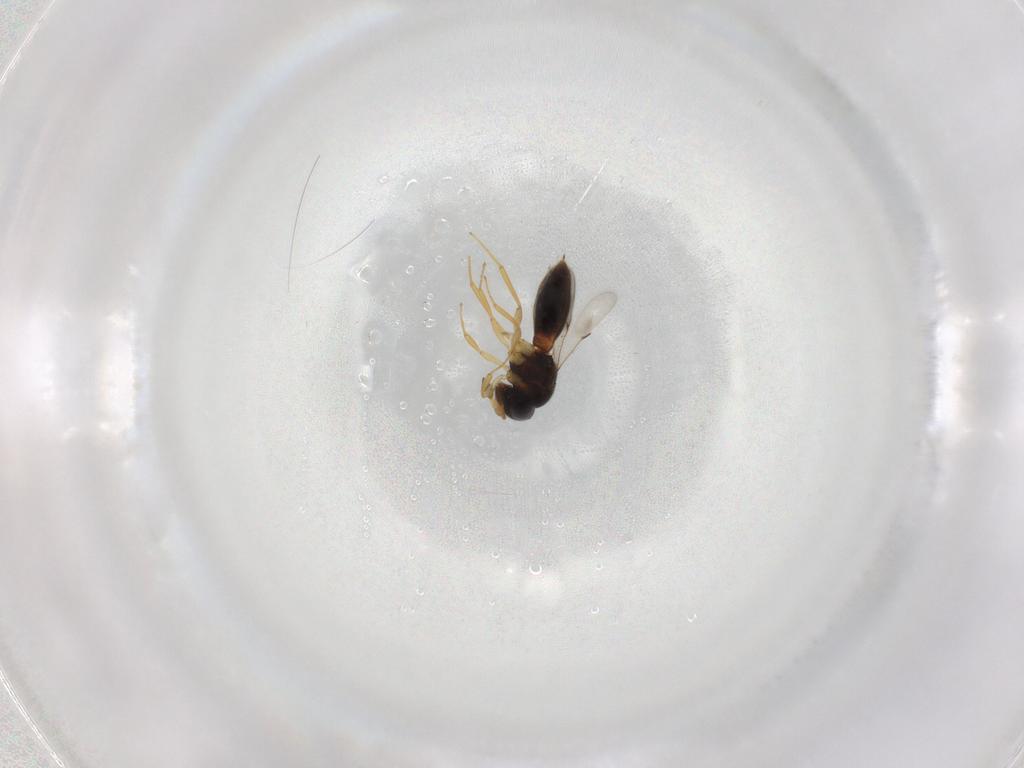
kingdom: Animalia
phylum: Arthropoda
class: Insecta
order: Hymenoptera
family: Scelionidae
